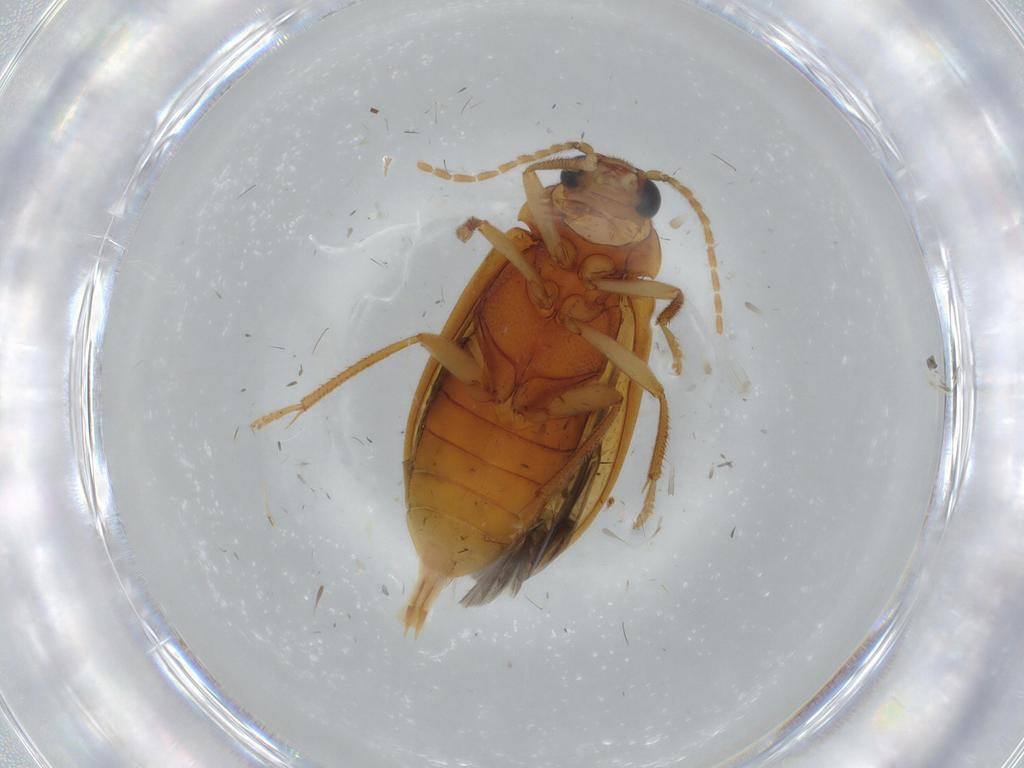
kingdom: Animalia
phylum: Arthropoda
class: Insecta
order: Coleoptera
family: Ptilodactylidae
